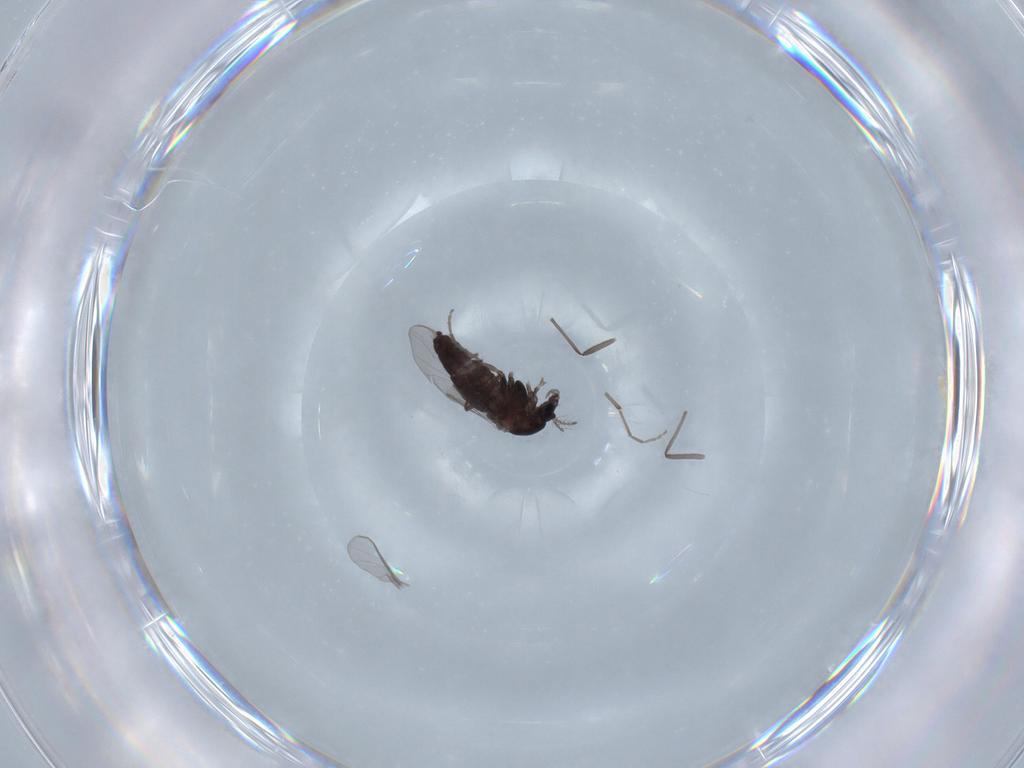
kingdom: Animalia
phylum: Arthropoda
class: Insecta
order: Diptera
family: Chironomidae
